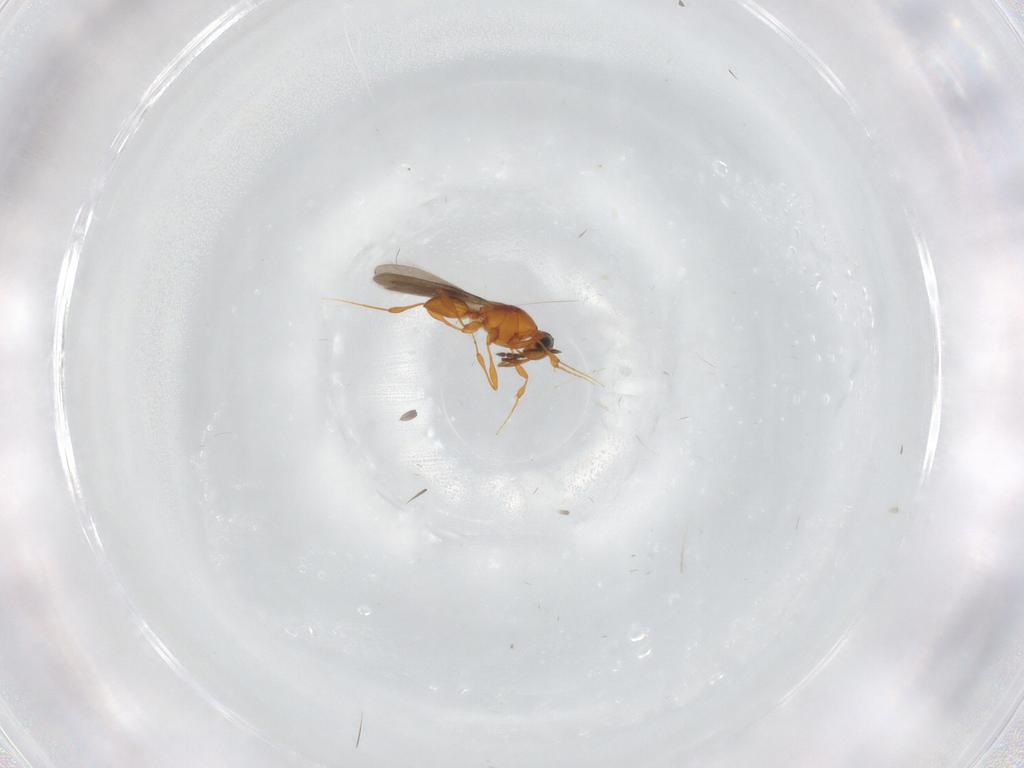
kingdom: Animalia
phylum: Arthropoda
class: Insecta
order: Hymenoptera
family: Platygastridae
